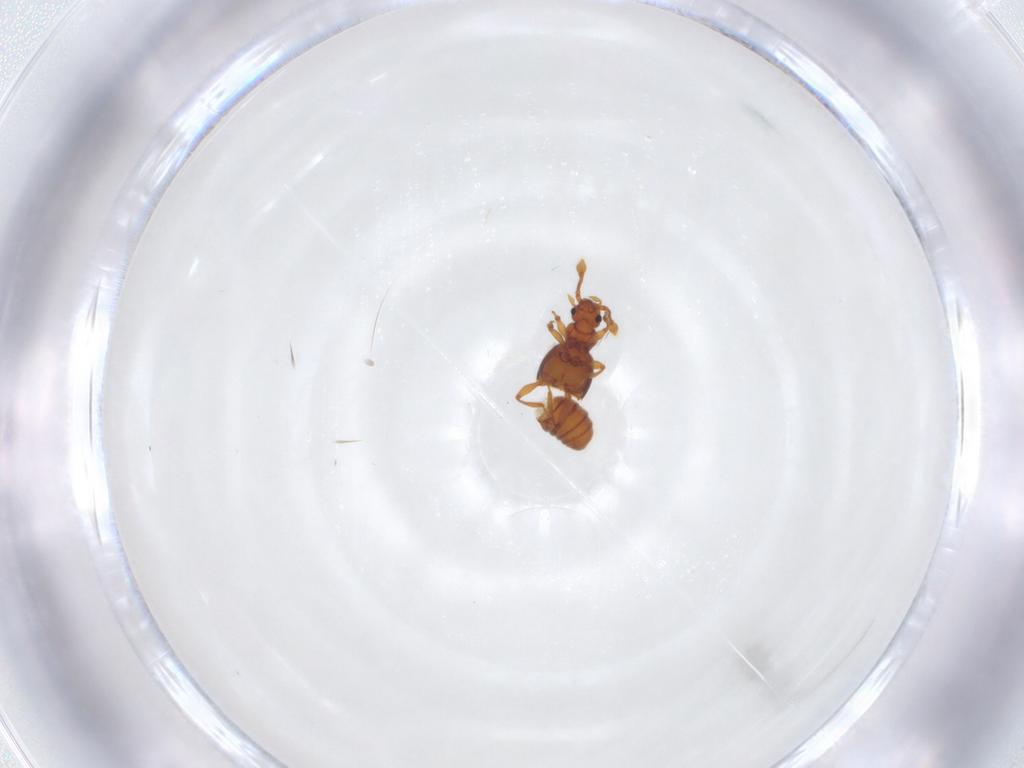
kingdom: Animalia
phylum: Arthropoda
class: Insecta
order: Coleoptera
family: Staphylinidae
